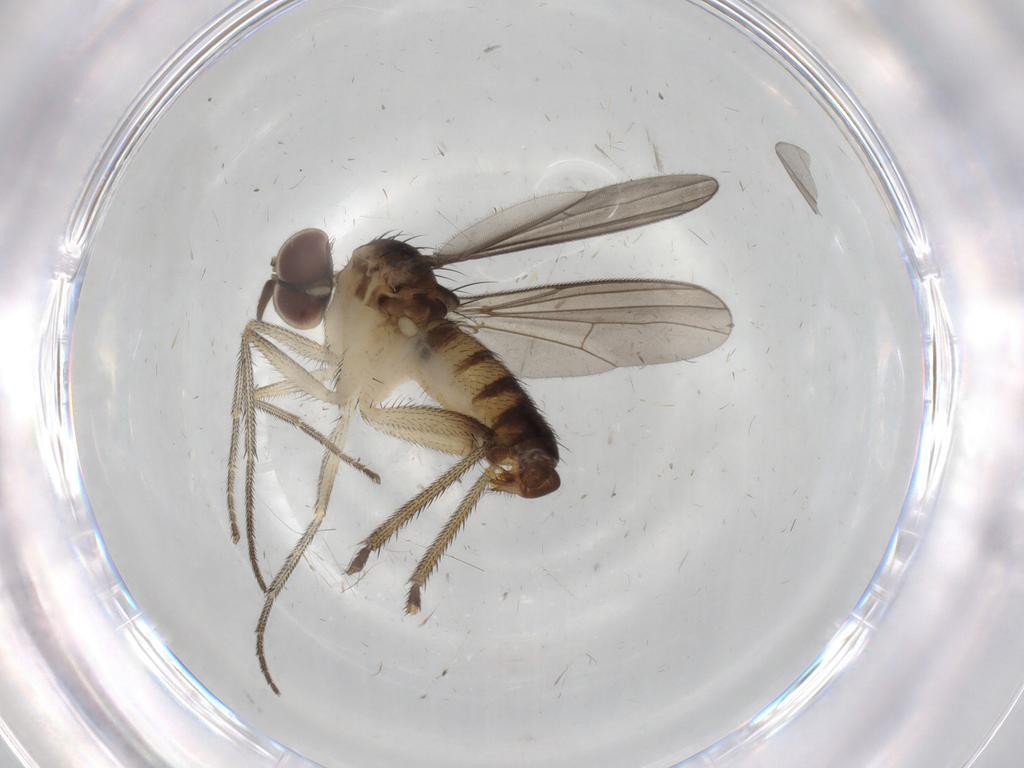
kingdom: Animalia
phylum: Arthropoda
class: Insecta
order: Diptera
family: Dolichopodidae
